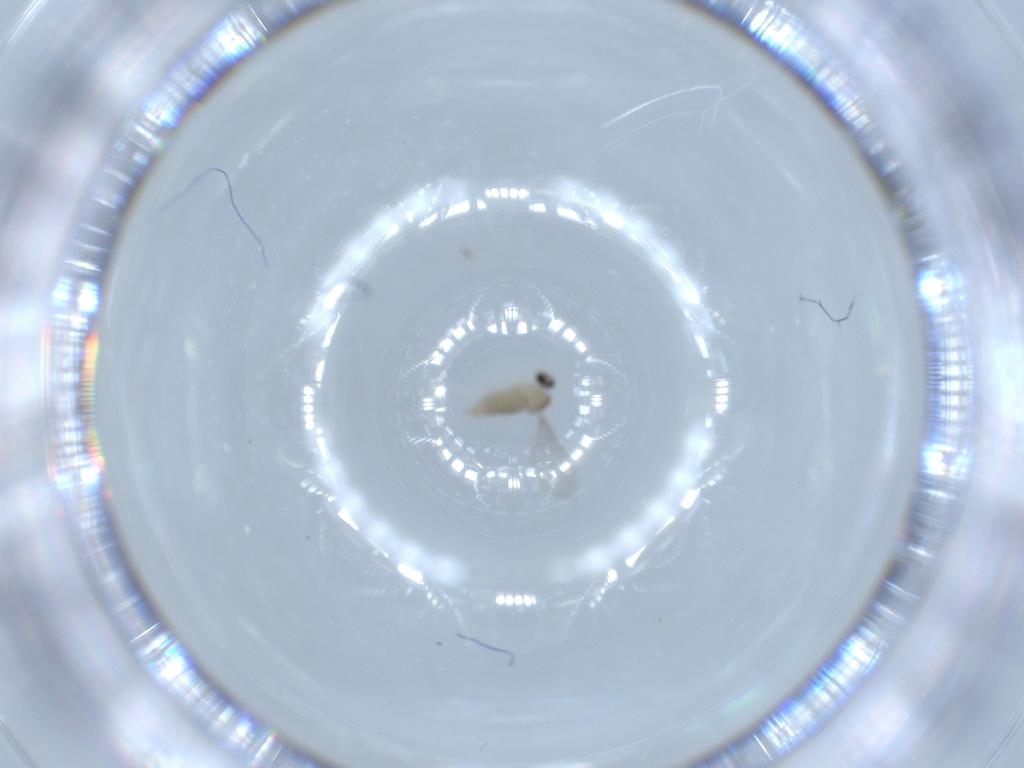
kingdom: Animalia
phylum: Arthropoda
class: Insecta
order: Diptera
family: Cecidomyiidae
